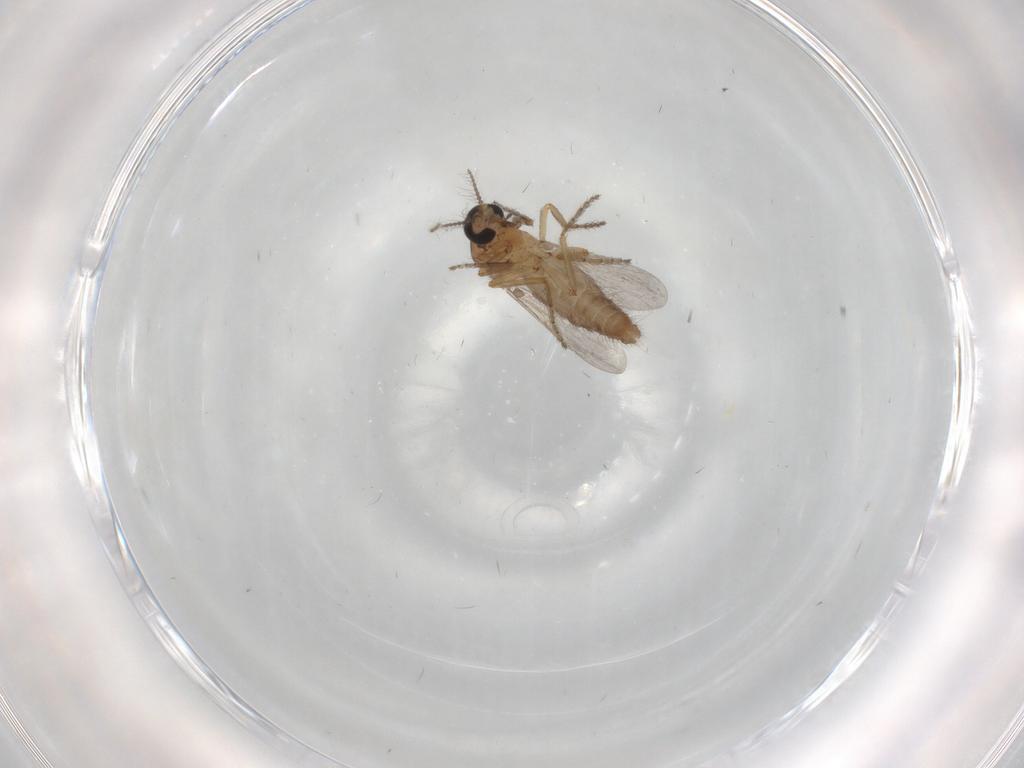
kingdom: Animalia
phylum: Arthropoda
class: Insecta
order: Diptera
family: Ceratopogonidae
